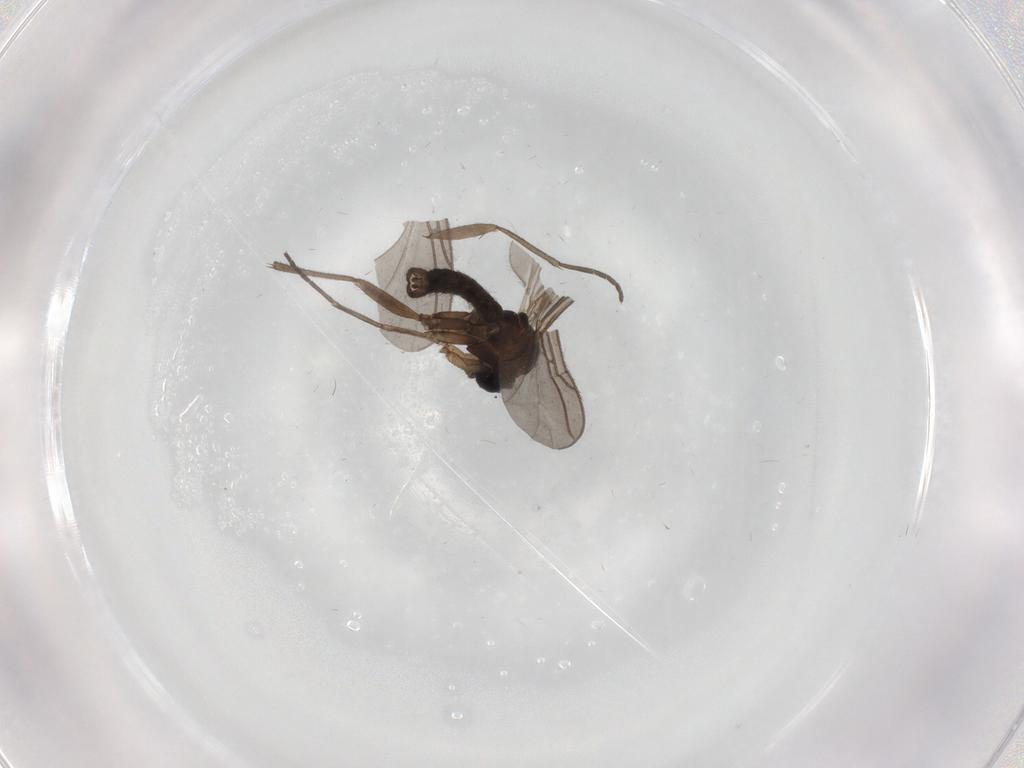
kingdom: Animalia
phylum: Arthropoda
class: Insecta
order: Diptera
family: Sciaridae
